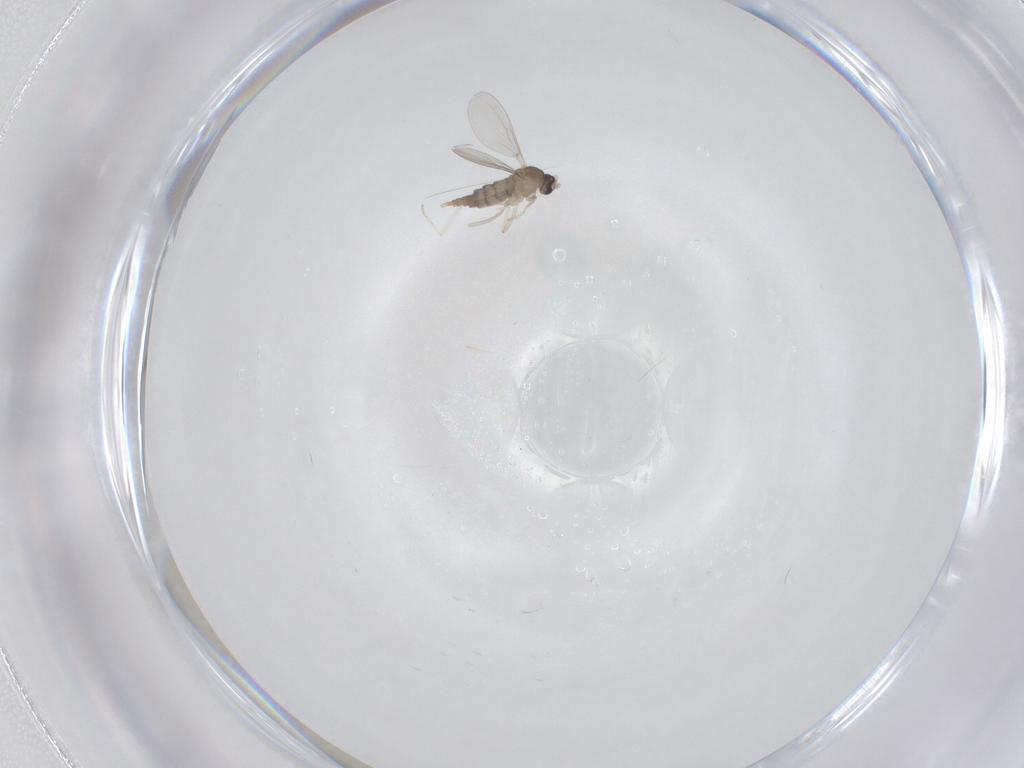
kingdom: Animalia
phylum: Arthropoda
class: Insecta
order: Diptera
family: Cecidomyiidae
